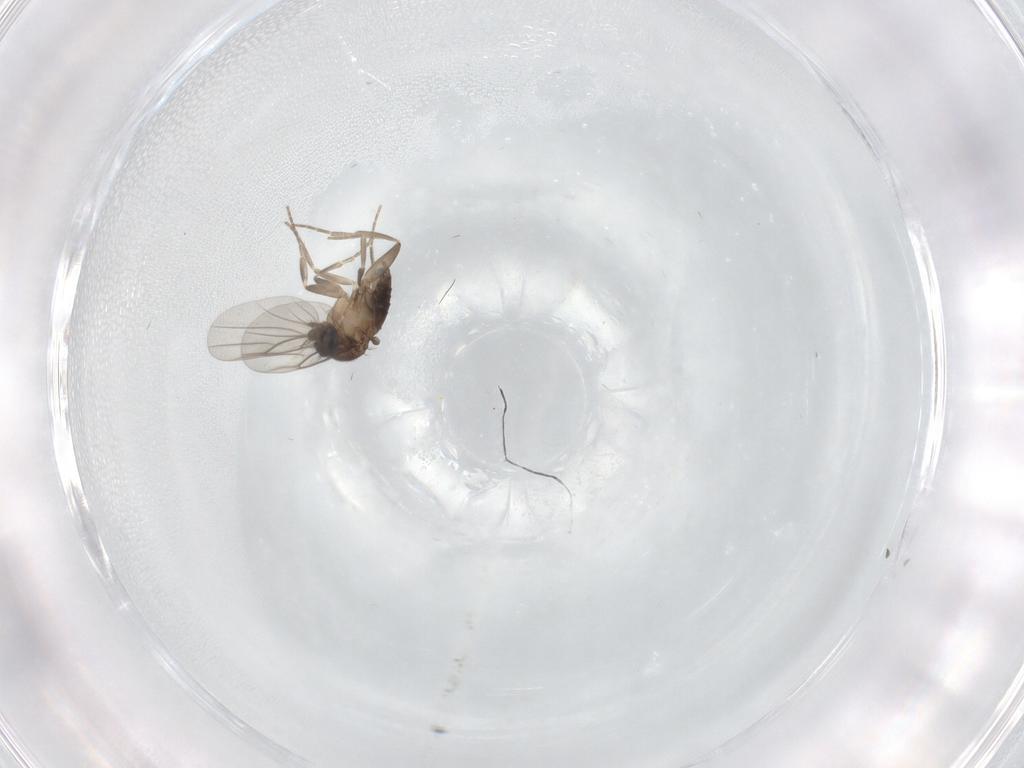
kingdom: Animalia
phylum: Arthropoda
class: Insecta
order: Diptera
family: Phoridae
